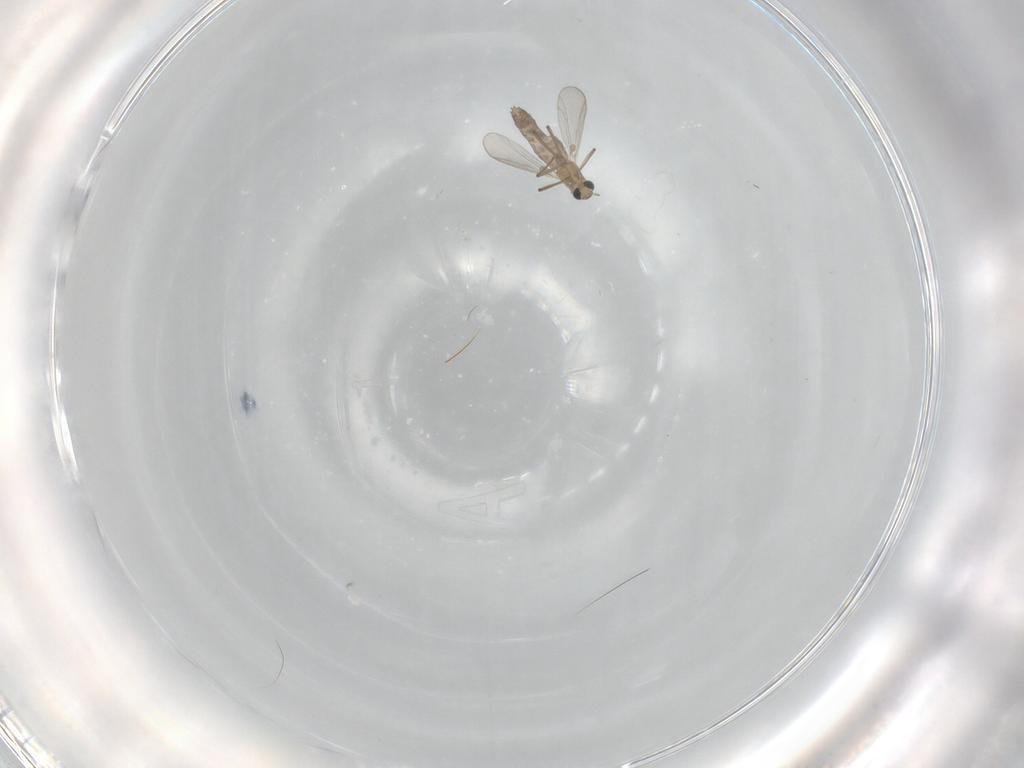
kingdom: Animalia
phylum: Arthropoda
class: Insecta
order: Diptera
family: Chironomidae
